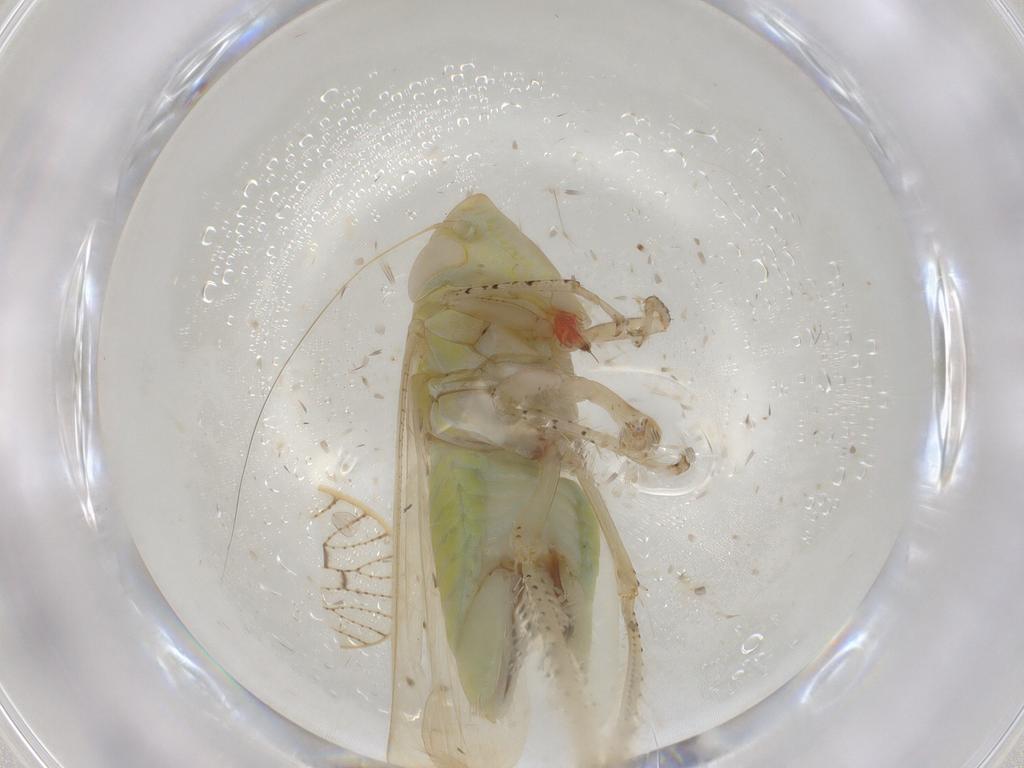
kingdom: Animalia
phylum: Arthropoda
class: Insecta
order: Hemiptera
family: Cicadellidae
